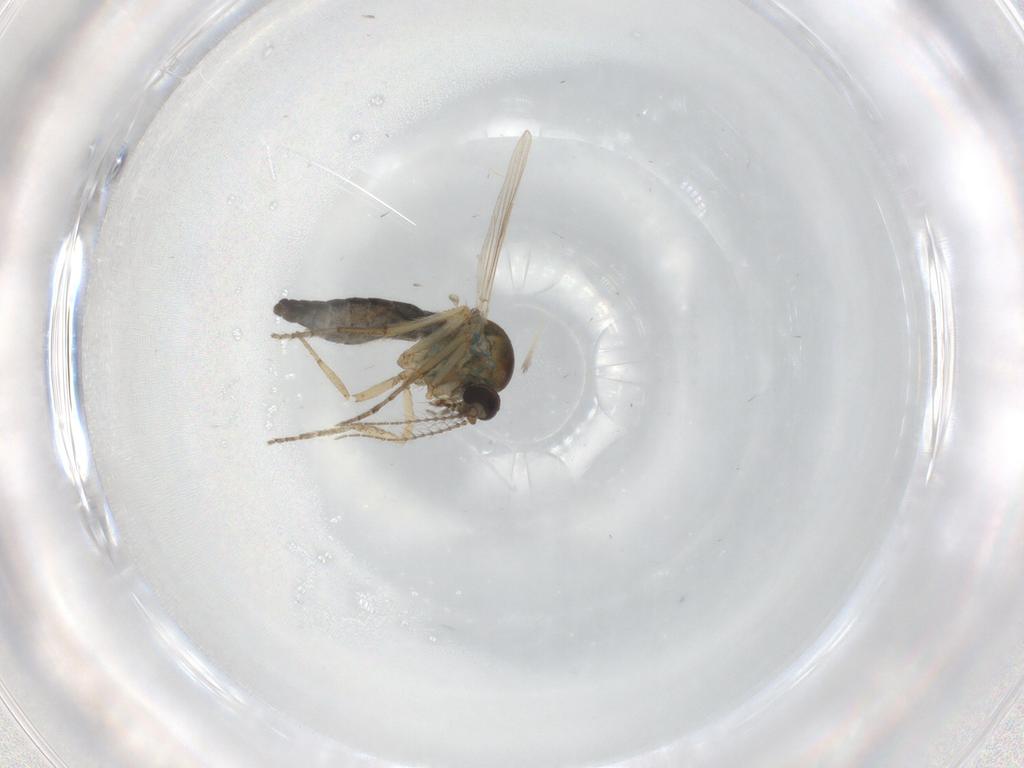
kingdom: Animalia
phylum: Arthropoda
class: Insecta
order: Diptera
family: Ceratopogonidae
